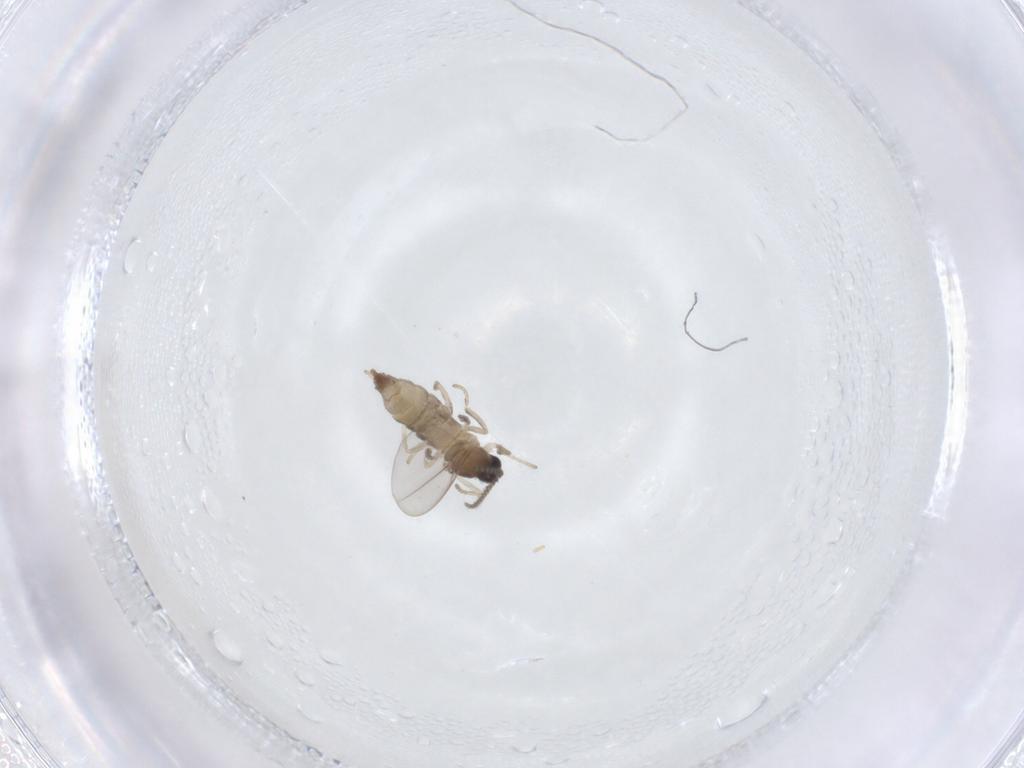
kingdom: Animalia
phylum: Arthropoda
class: Insecta
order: Diptera
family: Cecidomyiidae
